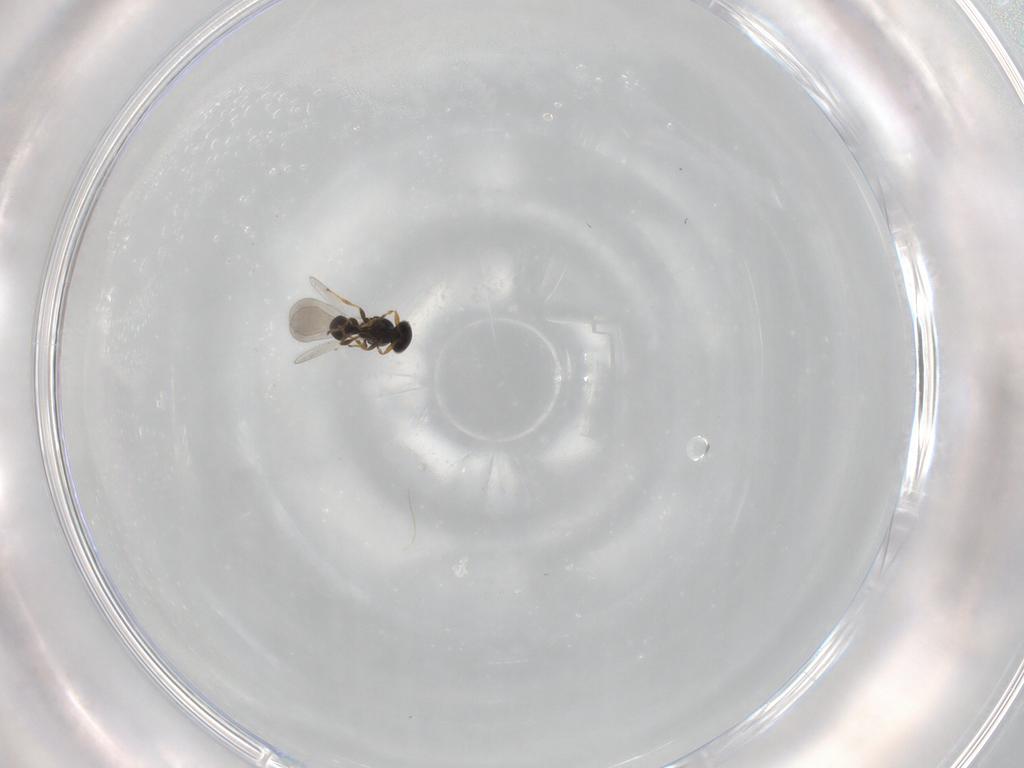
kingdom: Animalia
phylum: Arthropoda
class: Insecta
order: Hymenoptera
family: Platygastridae
